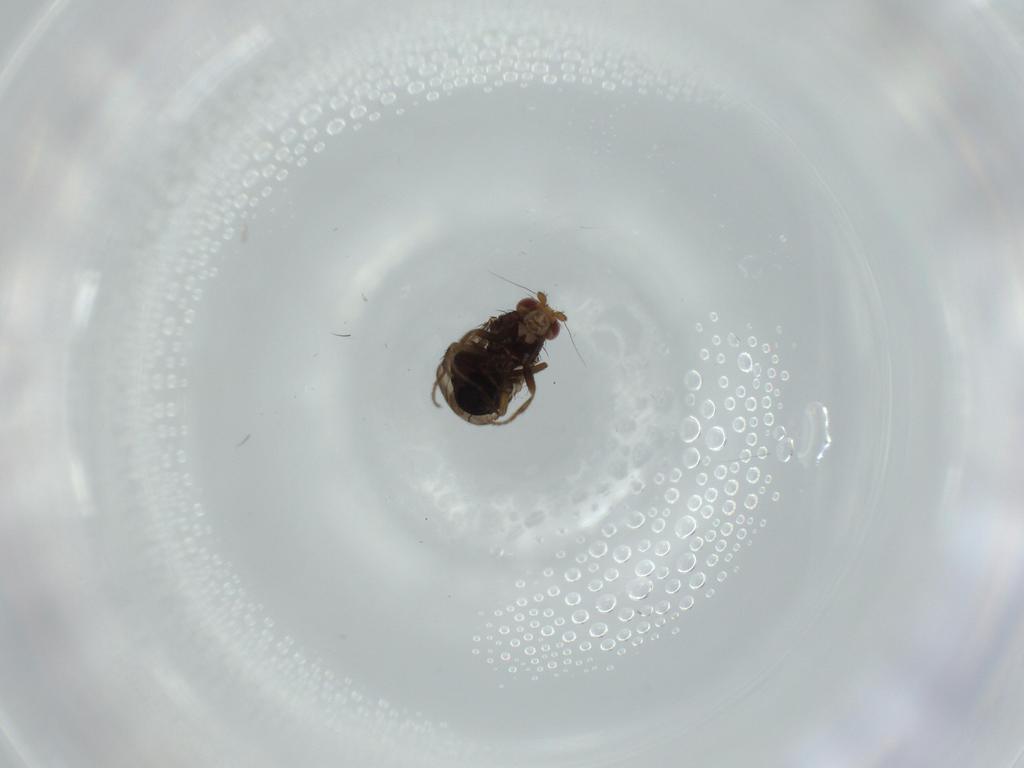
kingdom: Animalia
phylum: Arthropoda
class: Insecta
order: Diptera
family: Sphaeroceridae
